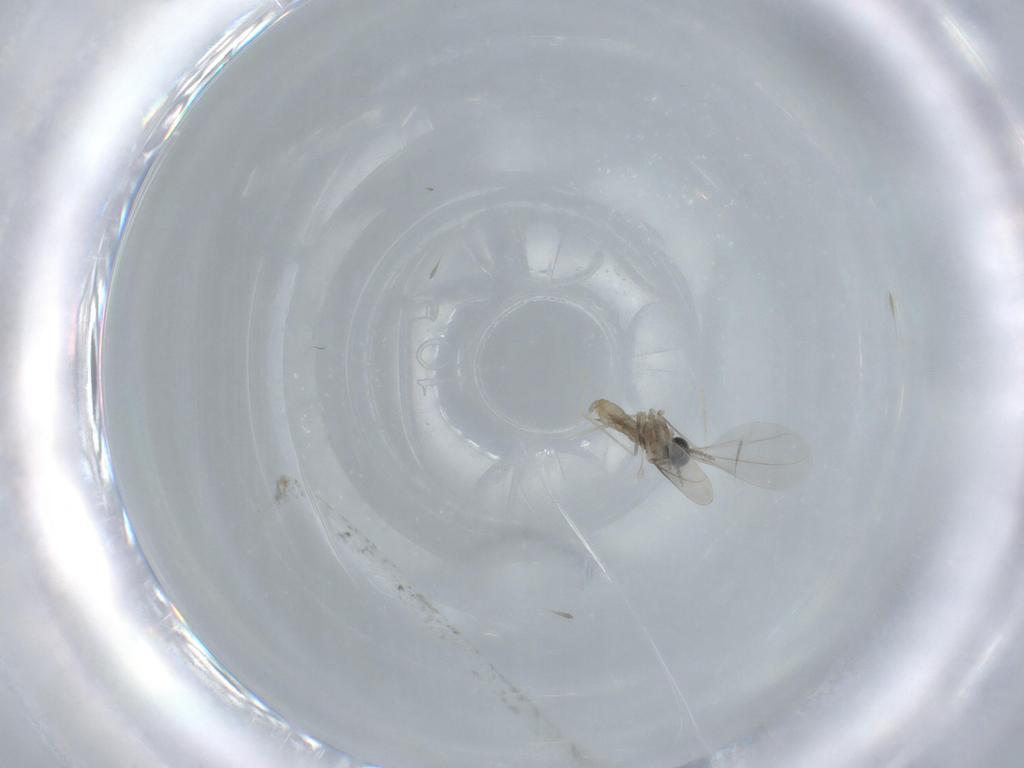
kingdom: Animalia
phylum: Arthropoda
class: Insecta
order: Diptera
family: Cecidomyiidae
